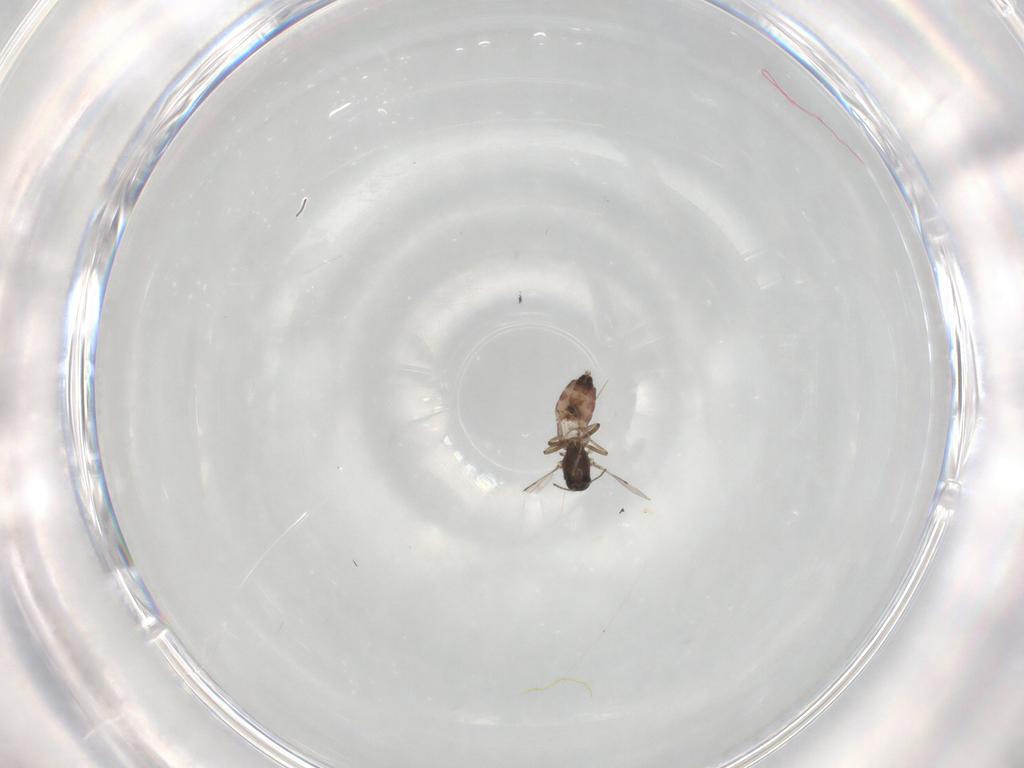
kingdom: Animalia
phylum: Arthropoda
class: Insecta
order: Diptera
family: Ceratopogonidae
